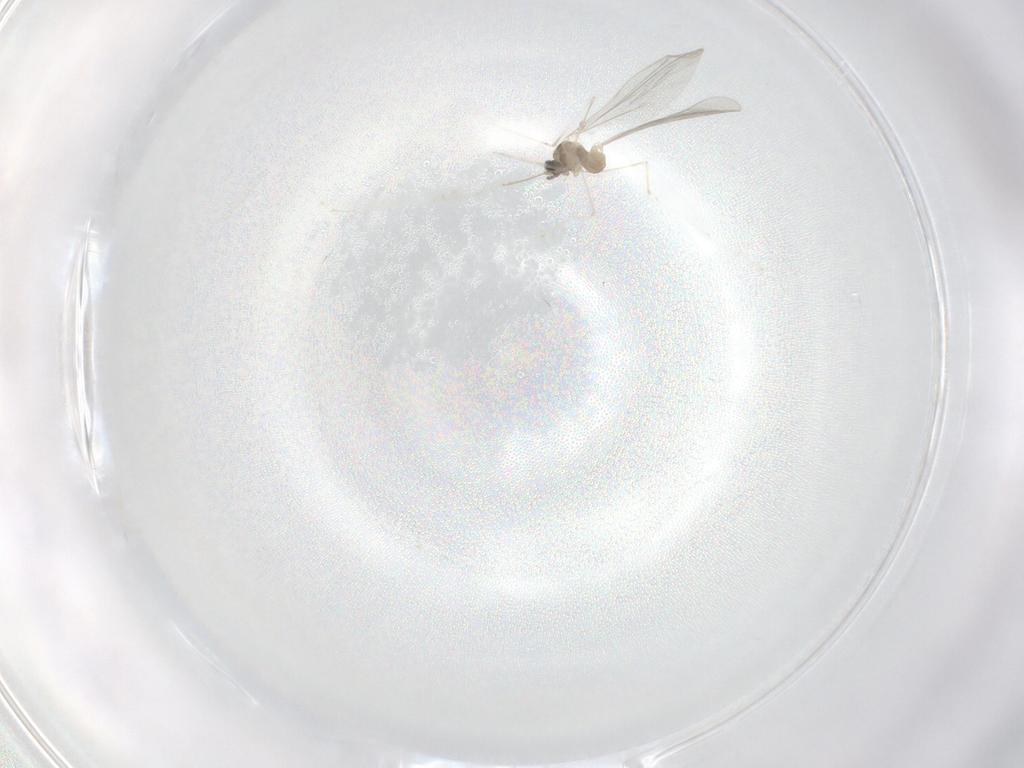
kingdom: Animalia
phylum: Arthropoda
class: Insecta
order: Diptera
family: Cecidomyiidae
